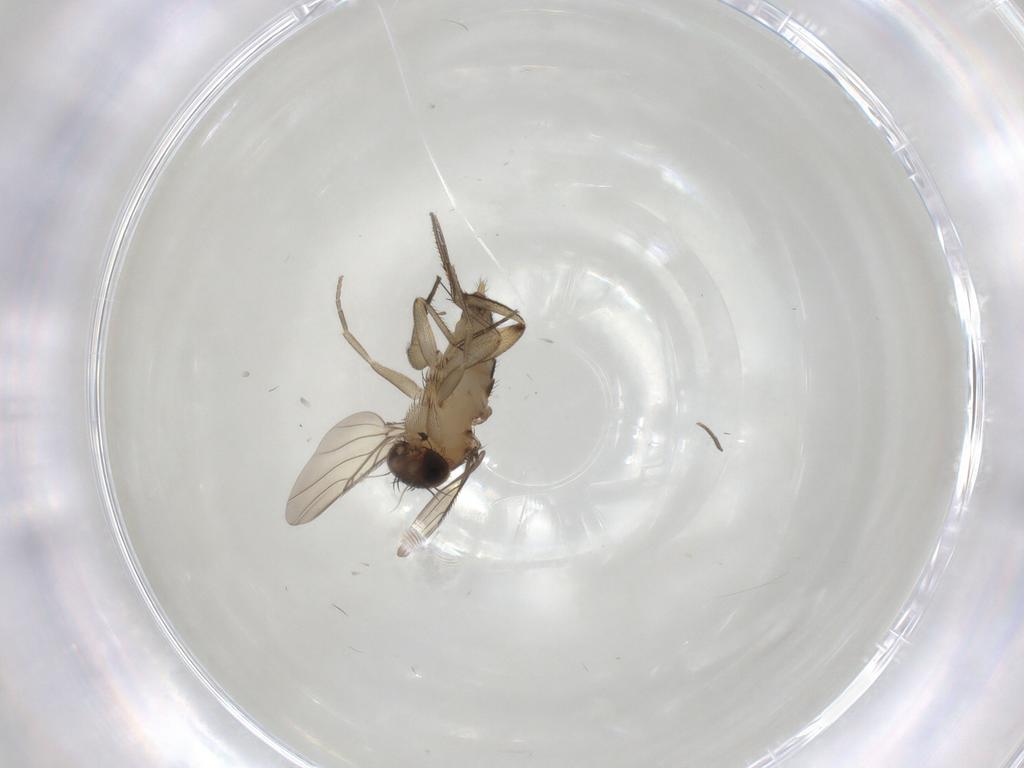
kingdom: Animalia
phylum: Arthropoda
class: Insecta
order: Diptera
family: Phoridae
